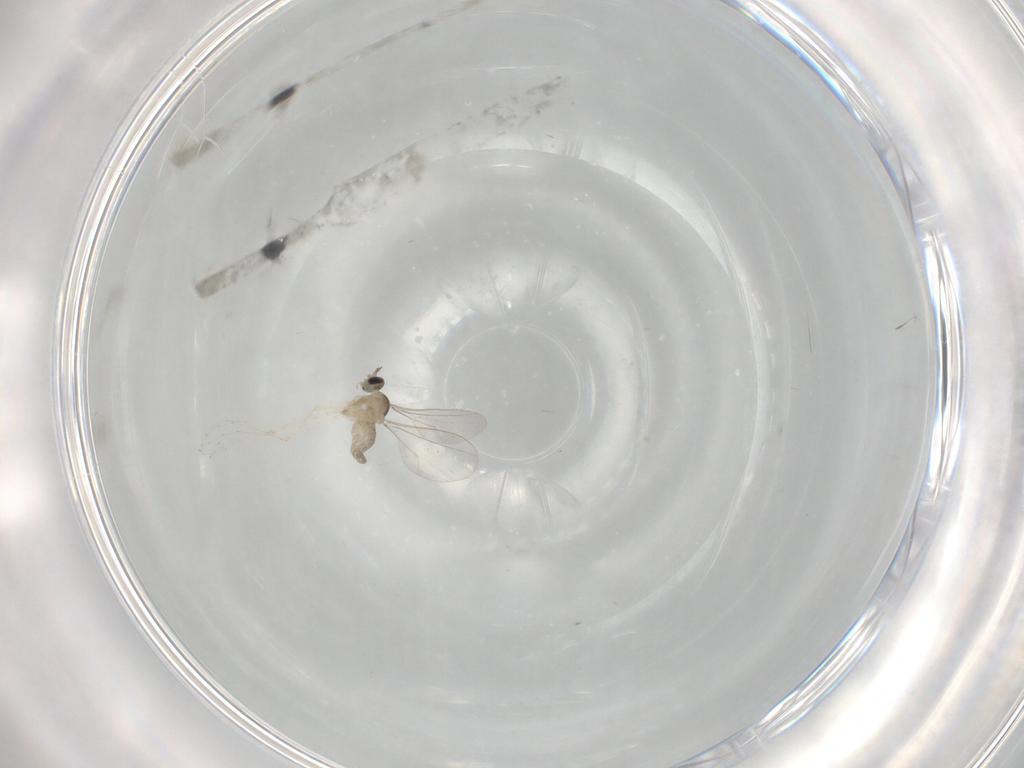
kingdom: Animalia
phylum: Arthropoda
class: Insecta
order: Diptera
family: Cecidomyiidae
